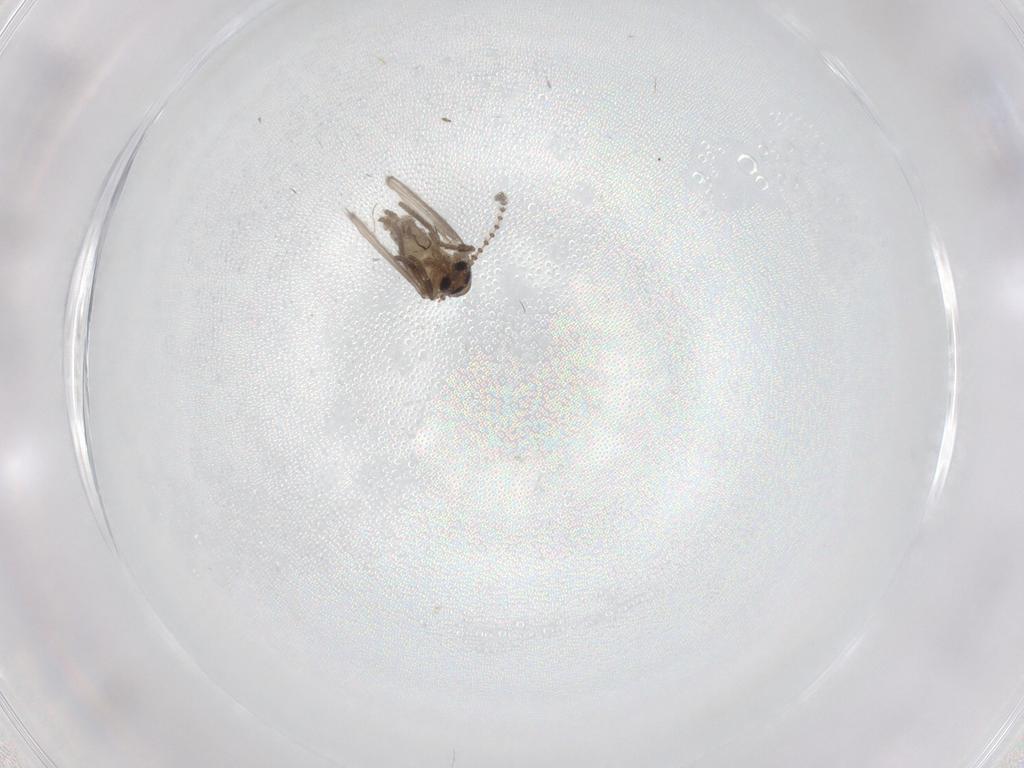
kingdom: Animalia
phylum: Arthropoda
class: Insecta
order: Diptera
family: Psychodidae
